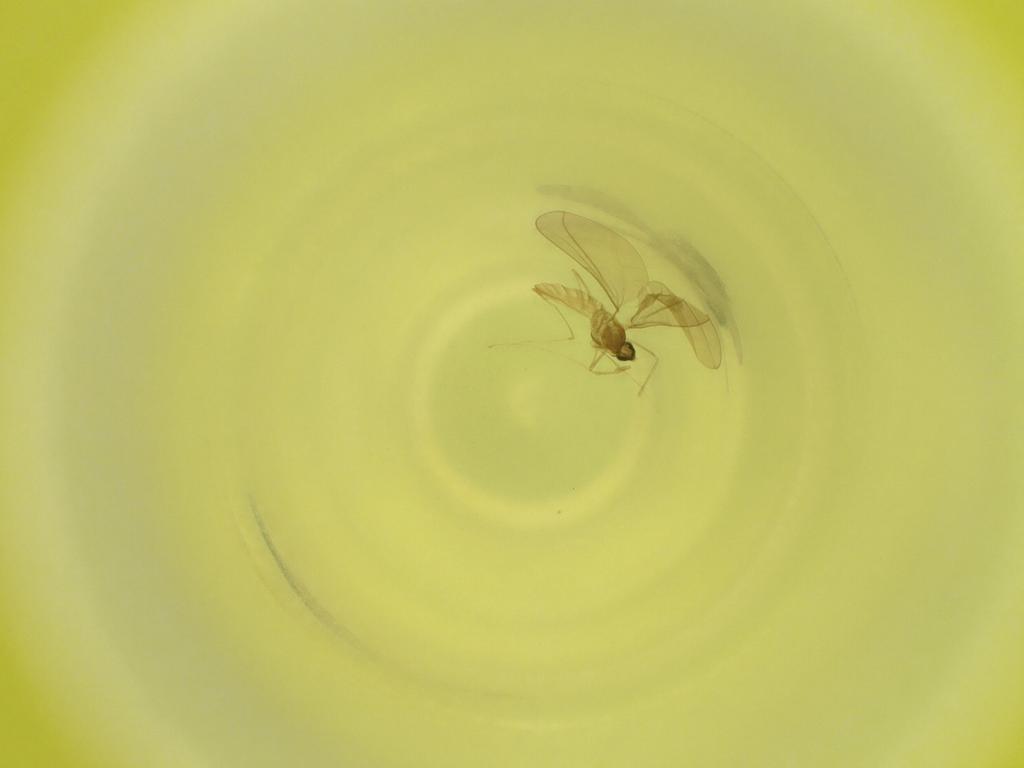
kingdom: Animalia
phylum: Arthropoda
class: Insecta
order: Diptera
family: Cecidomyiidae
